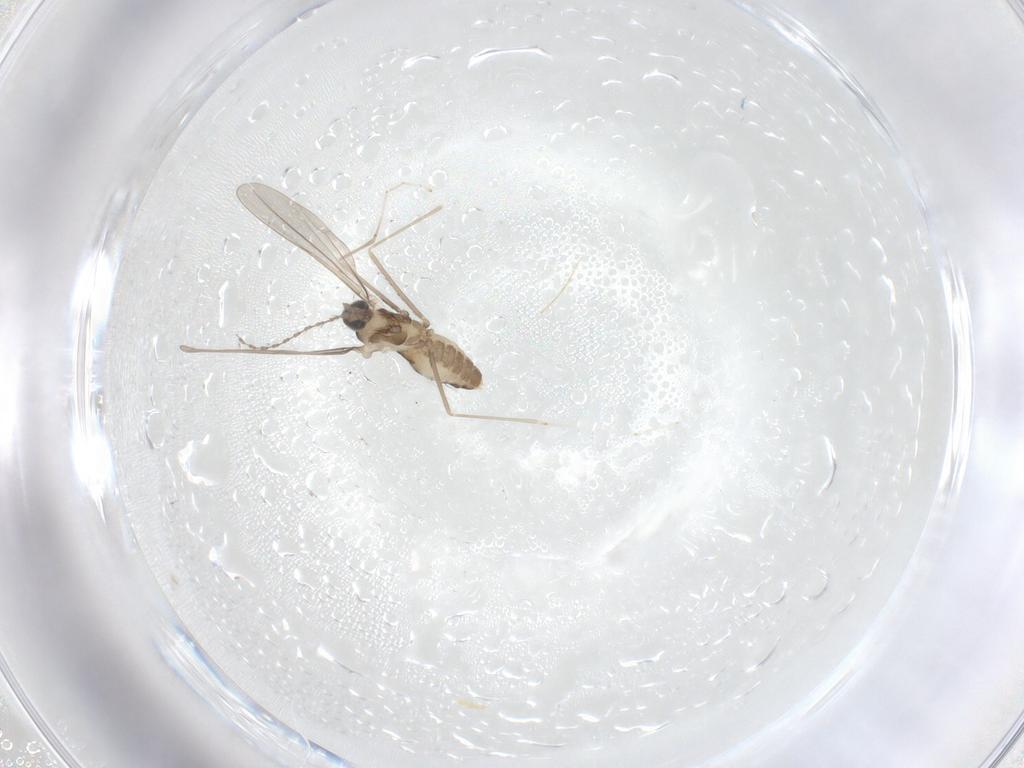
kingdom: Animalia
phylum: Arthropoda
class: Insecta
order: Diptera
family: Cecidomyiidae
